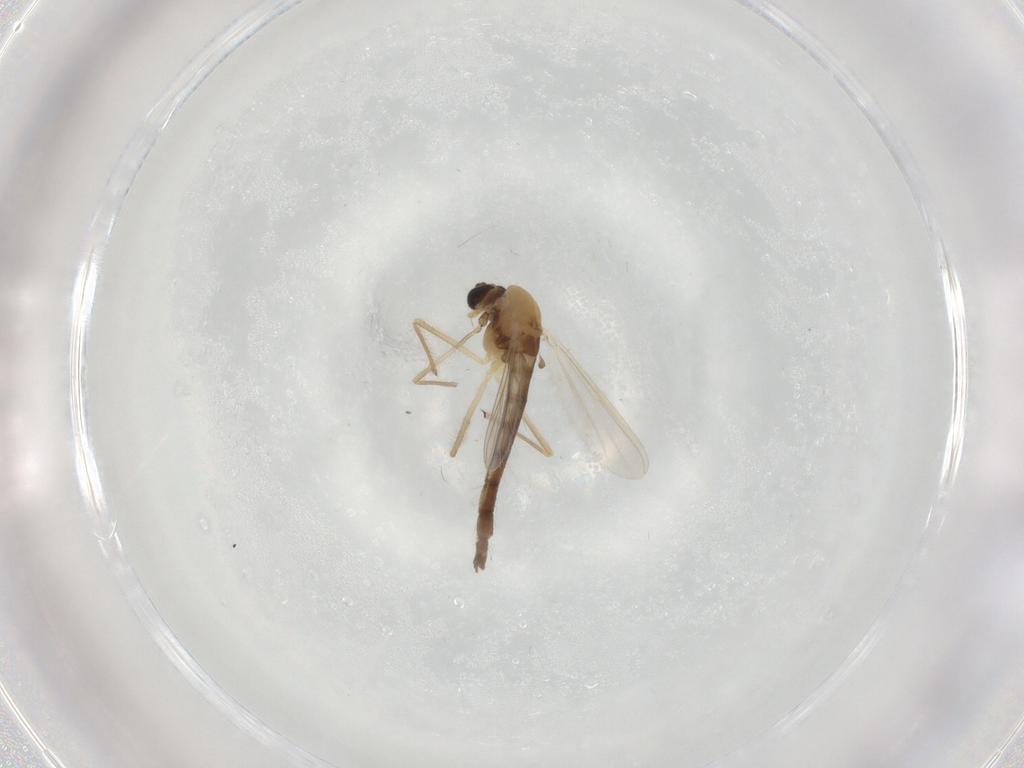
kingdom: Animalia
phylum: Arthropoda
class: Insecta
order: Diptera
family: Chironomidae
